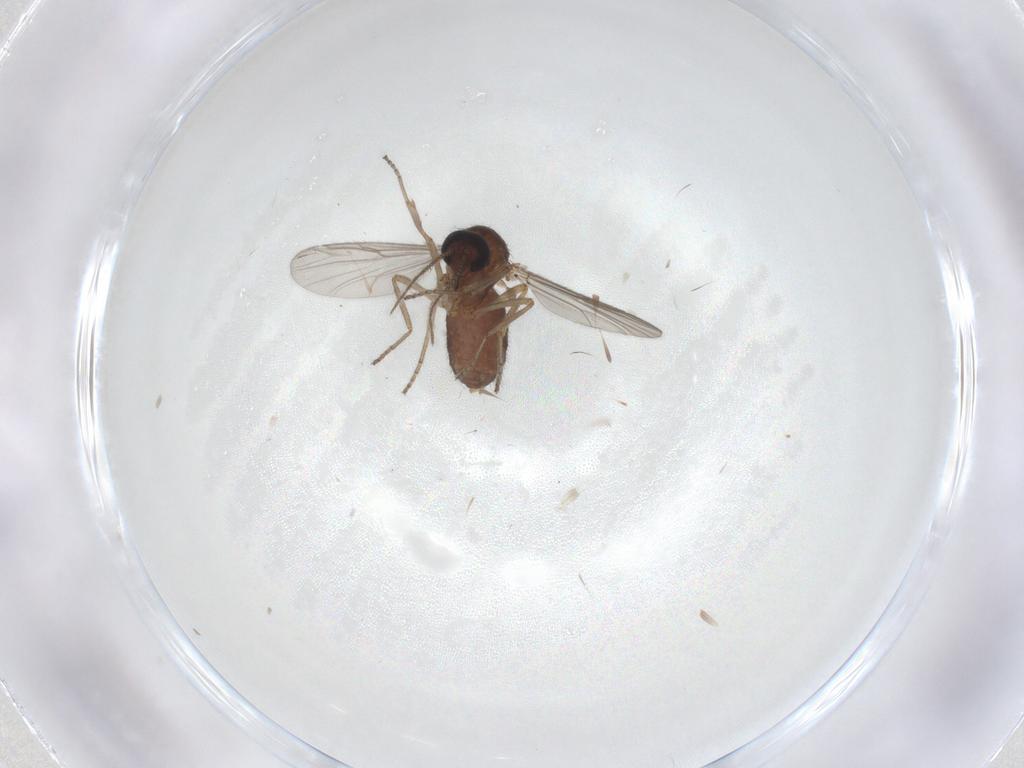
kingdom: Animalia
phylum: Arthropoda
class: Insecta
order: Diptera
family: Ceratopogonidae
